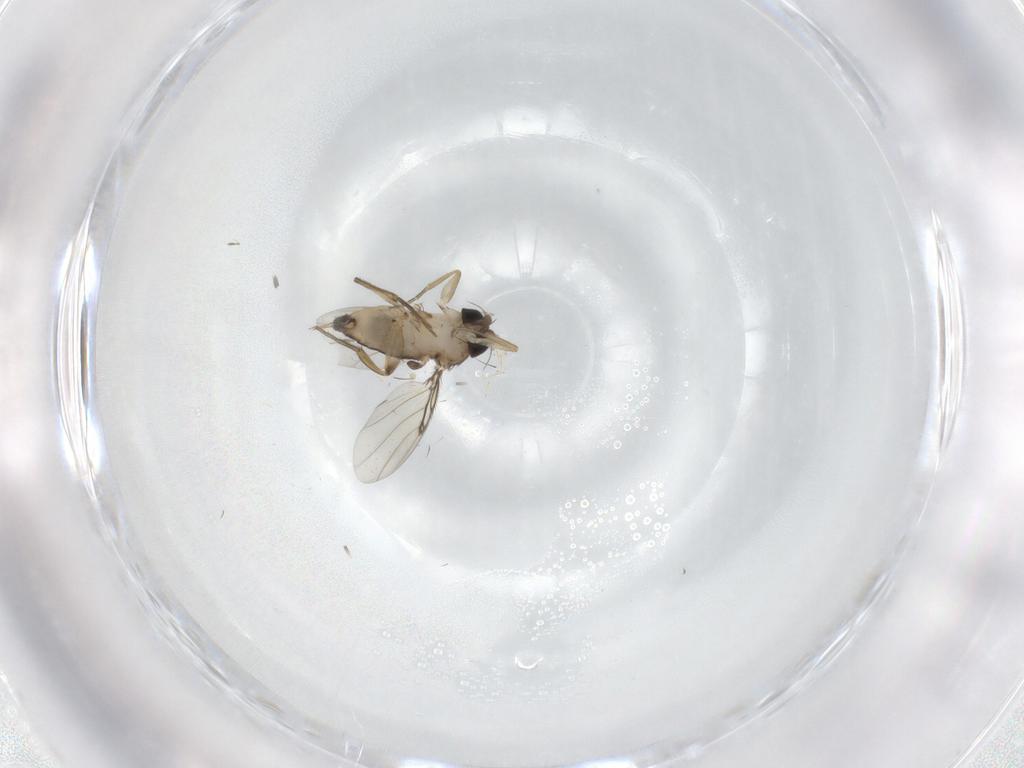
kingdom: Animalia
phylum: Arthropoda
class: Insecta
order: Diptera
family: Phoridae
